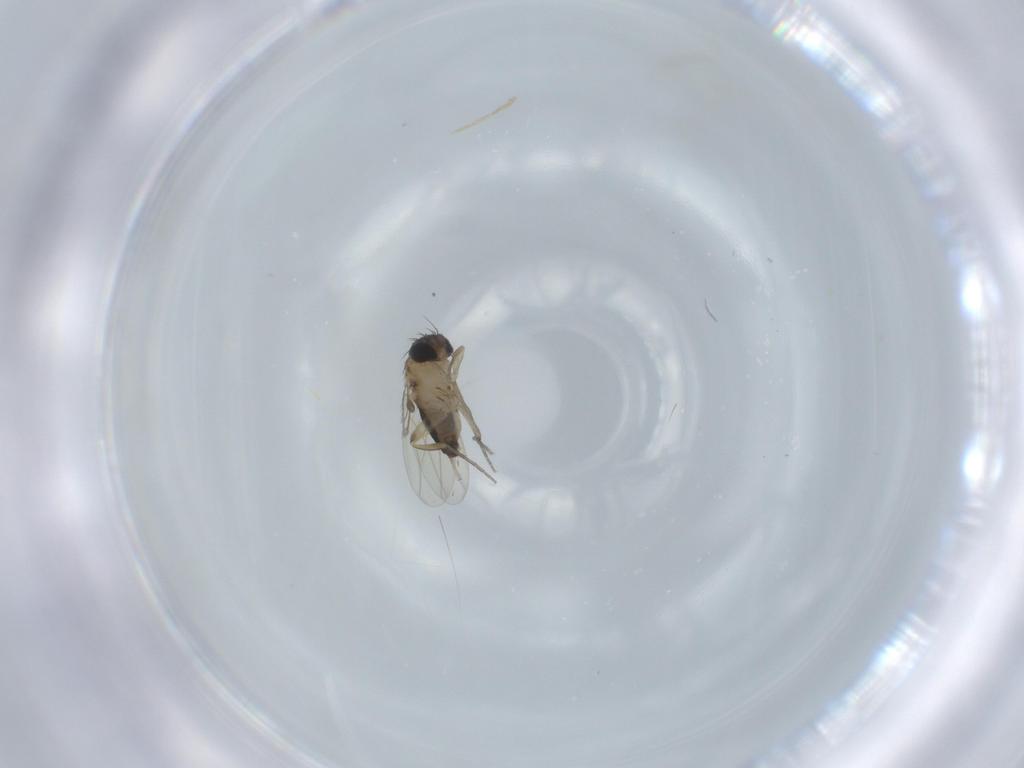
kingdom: Animalia
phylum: Arthropoda
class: Insecta
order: Diptera
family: Phoridae
